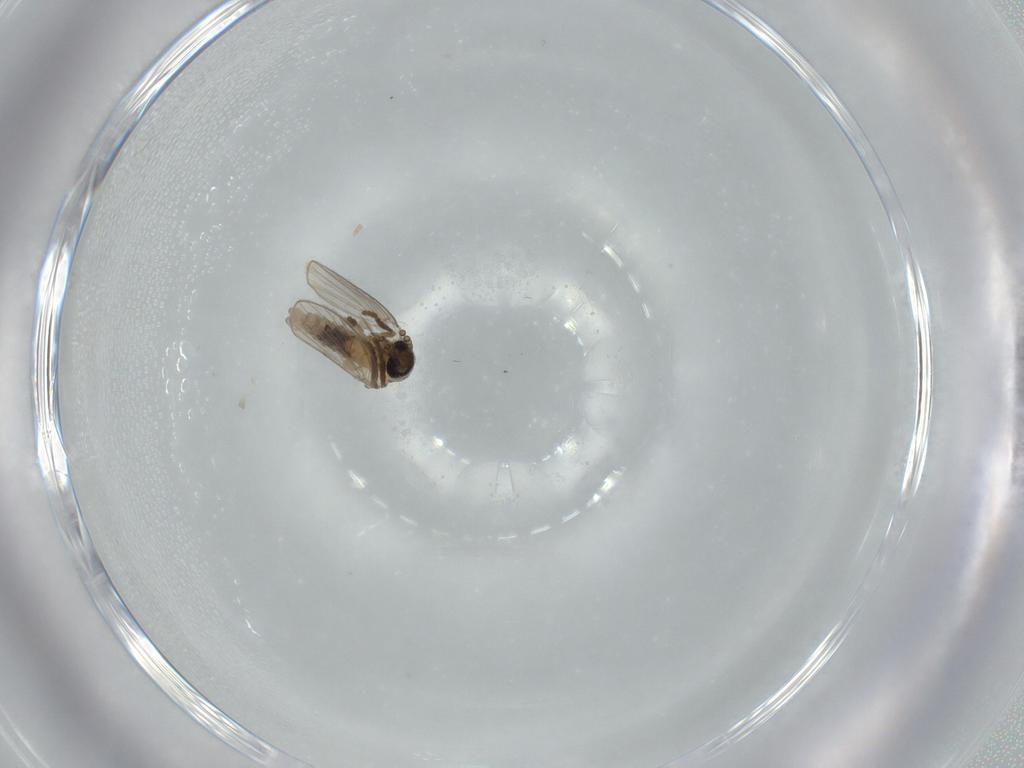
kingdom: Animalia
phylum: Arthropoda
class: Insecta
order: Diptera
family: Psychodidae
